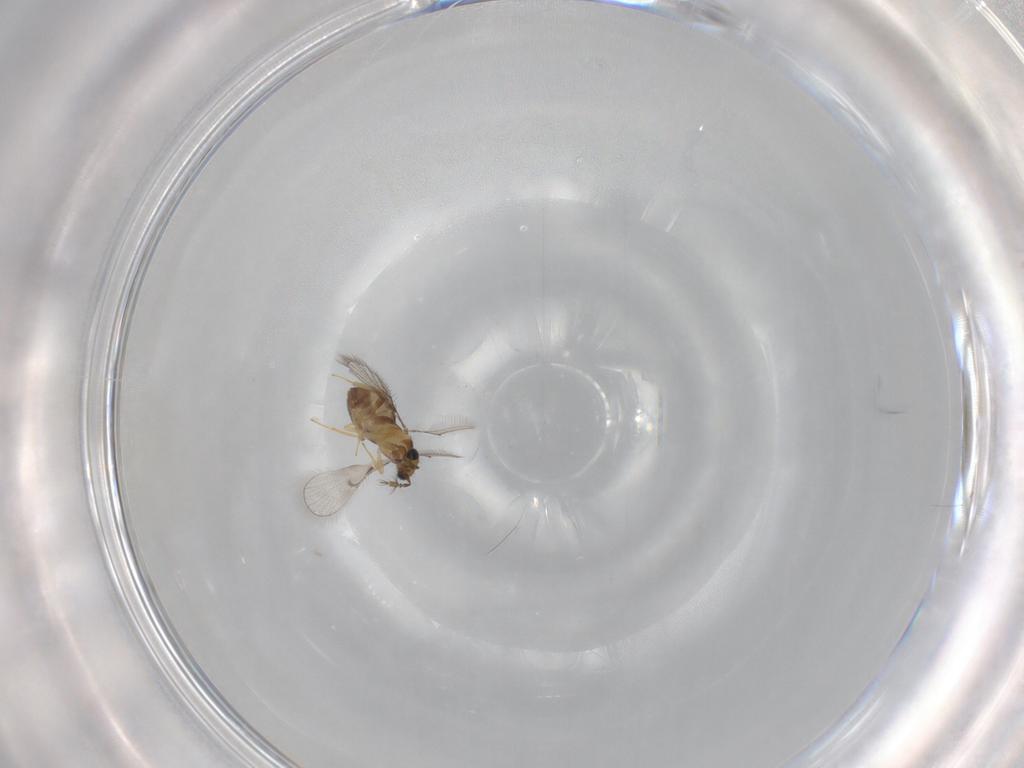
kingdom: Animalia
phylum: Arthropoda
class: Insecta
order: Hymenoptera
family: Trichogrammatidae
